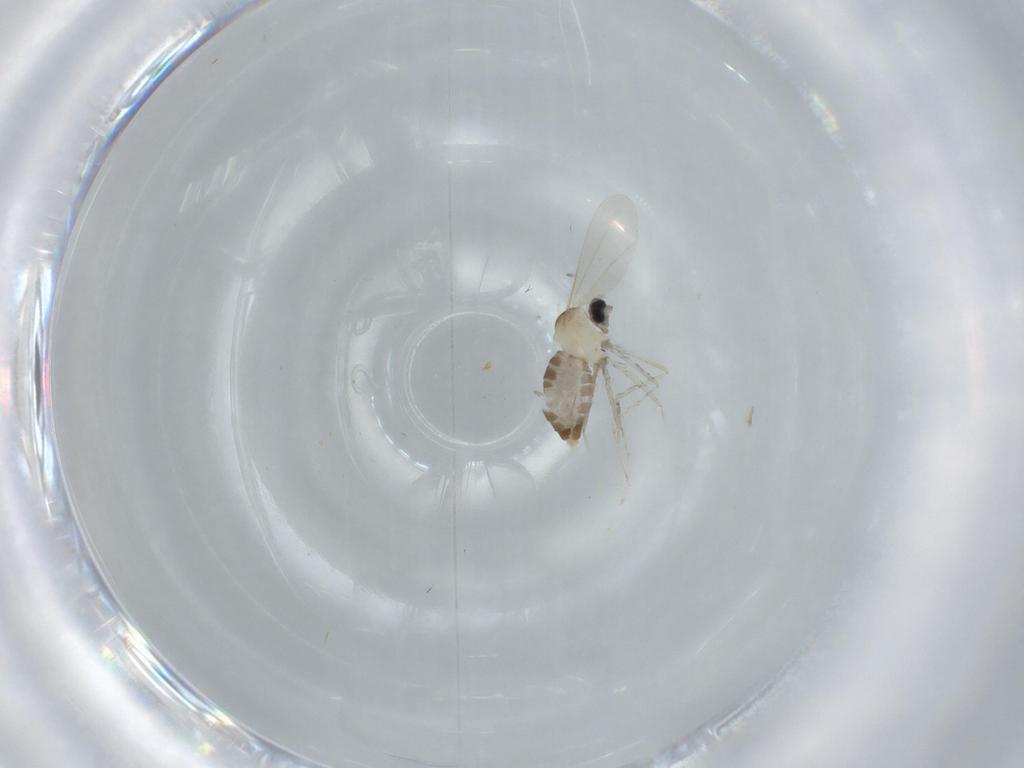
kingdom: Animalia
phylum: Arthropoda
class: Insecta
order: Diptera
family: Cecidomyiidae
